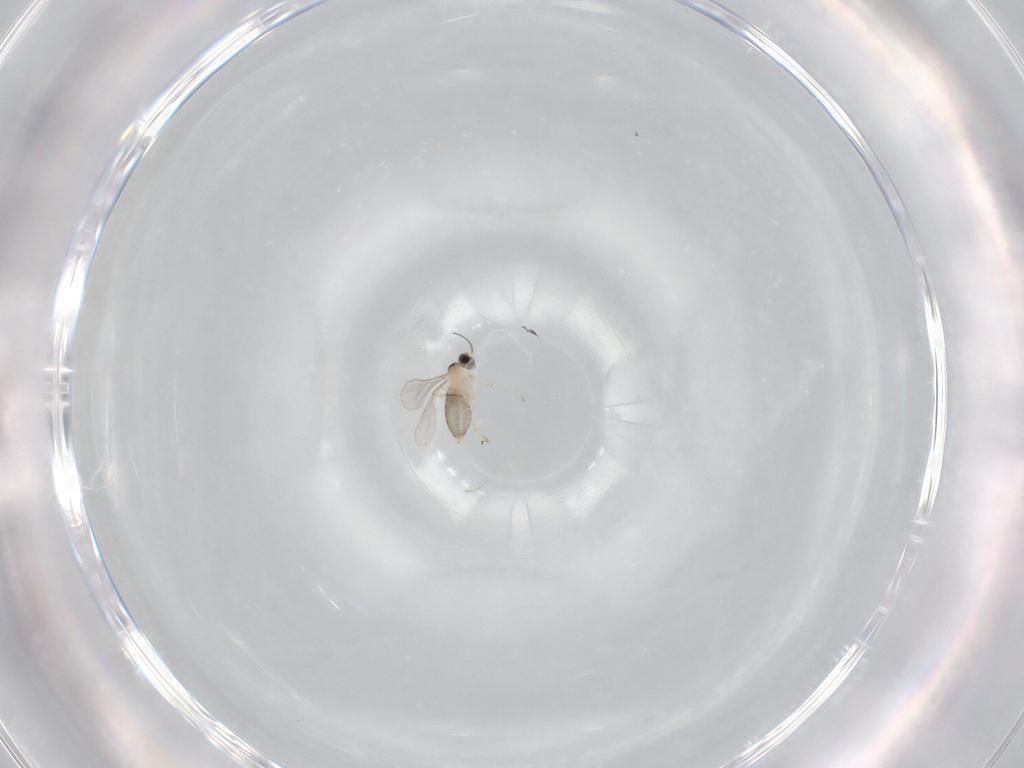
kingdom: Animalia
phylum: Arthropoda
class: Insecta
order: Diptera
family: Cecidomyiidae
